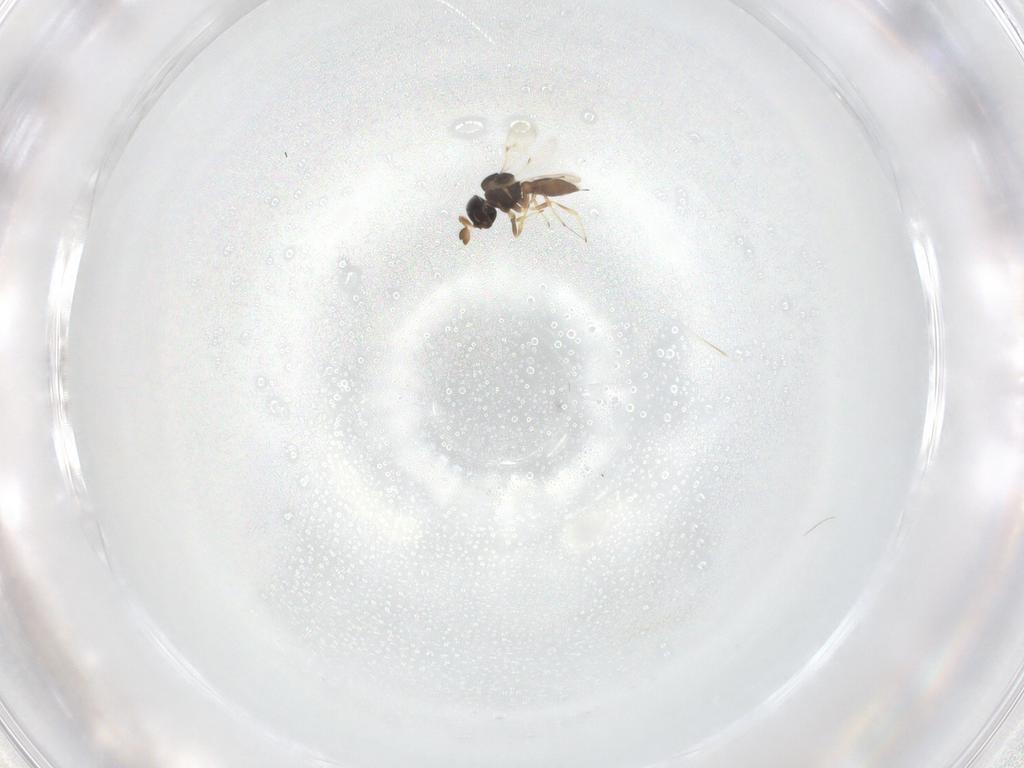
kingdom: Animalia
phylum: Arthropoda
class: Insecta
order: Hymenoptera
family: Scelionidae
